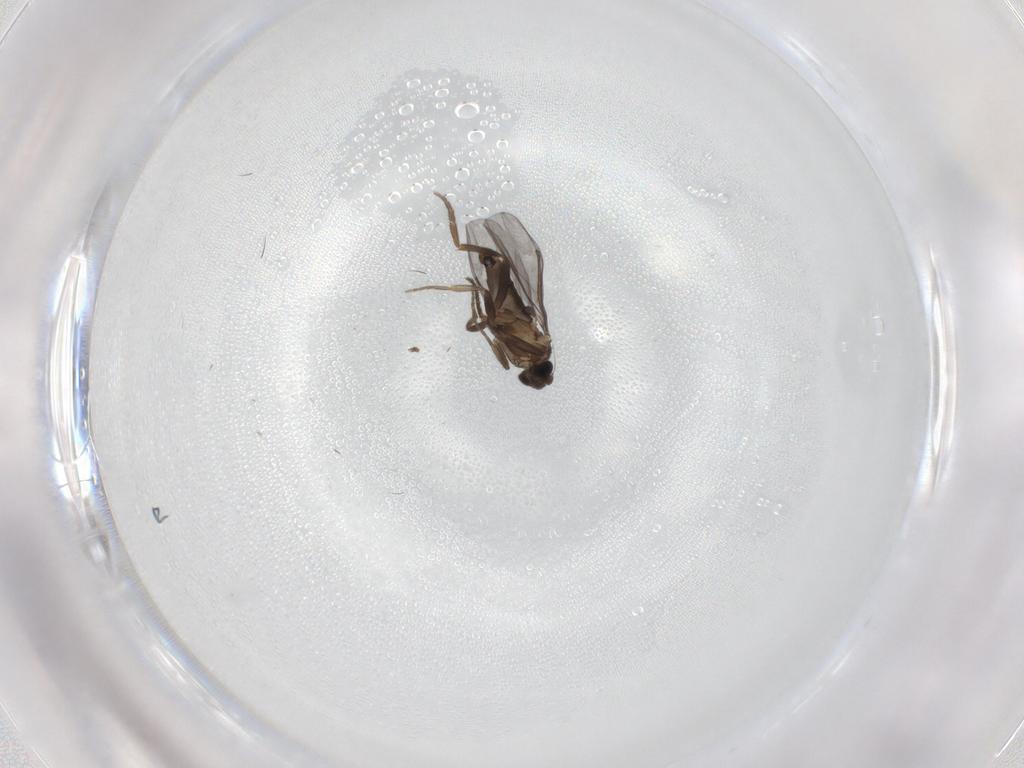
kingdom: Animalia
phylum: Arthropoda
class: Insecta
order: Diptera
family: Phoridae
